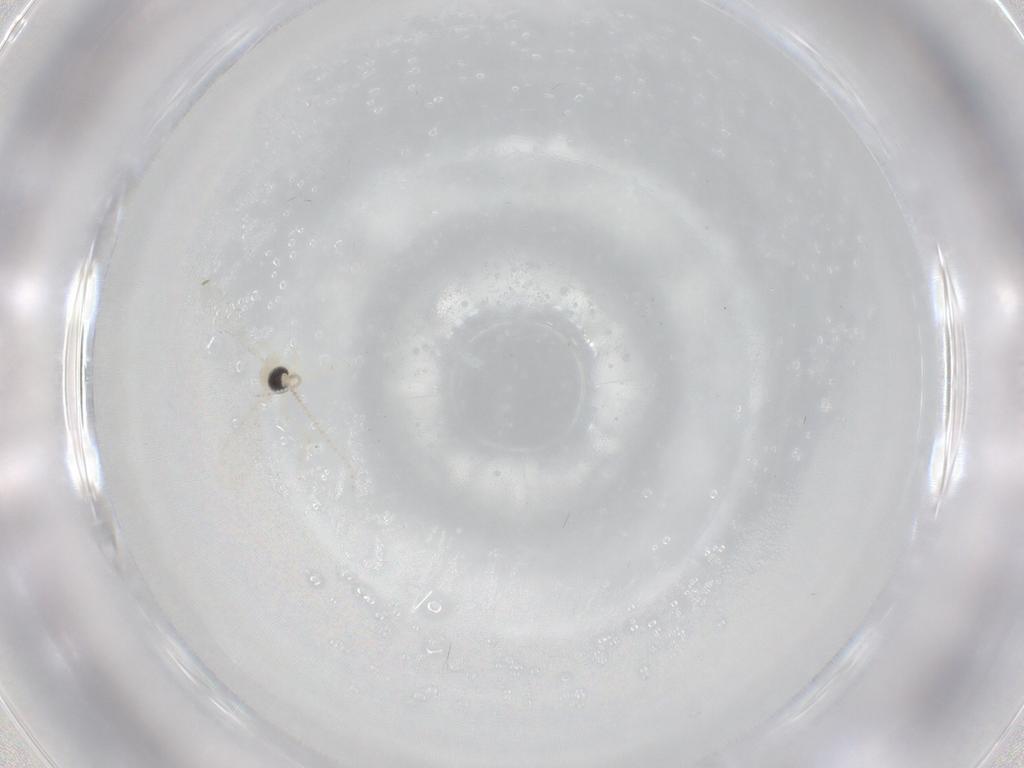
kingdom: Animalia
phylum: Arthropoda
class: Insecta
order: Diptera
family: Cecidomyiidae
